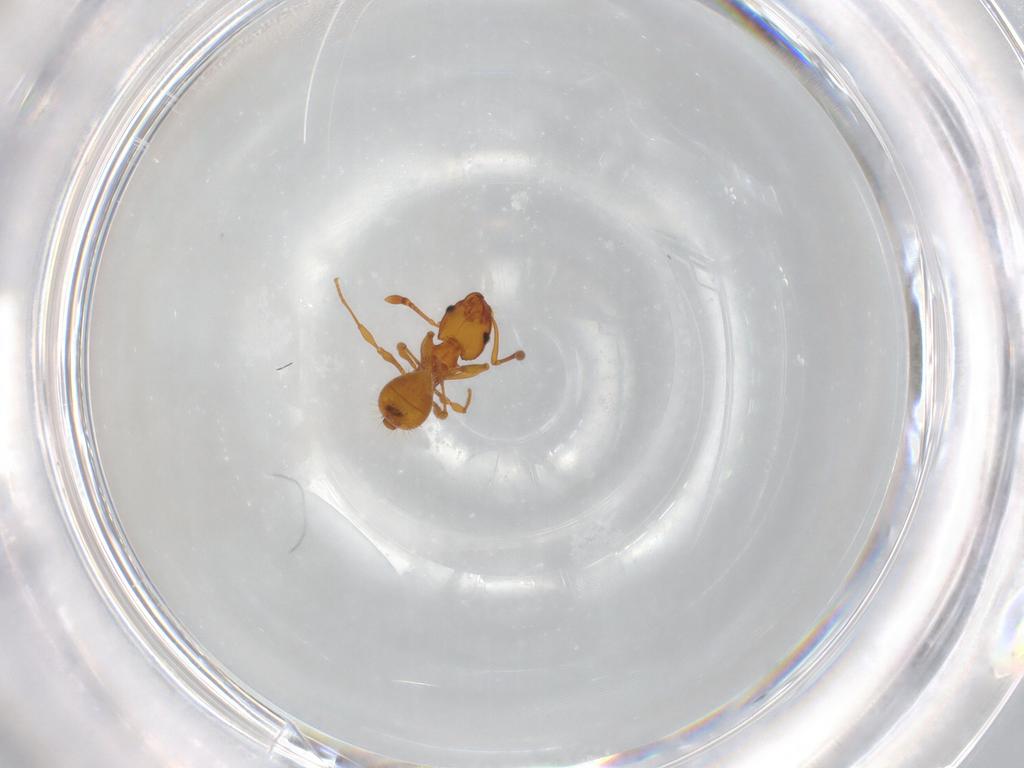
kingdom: Animalia
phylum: Arthropoda
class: Insecta
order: Hymenoptera
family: Formicidae
